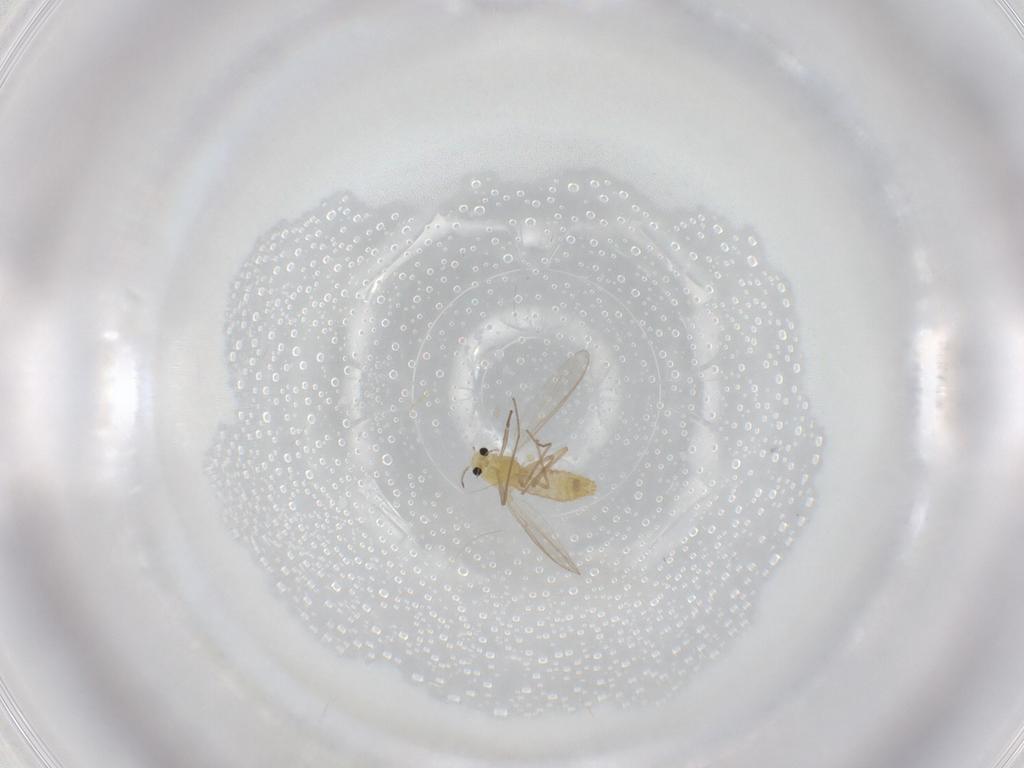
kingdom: Animalia
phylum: Arthropoda
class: Insecta
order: Diptera
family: Chironomidae
